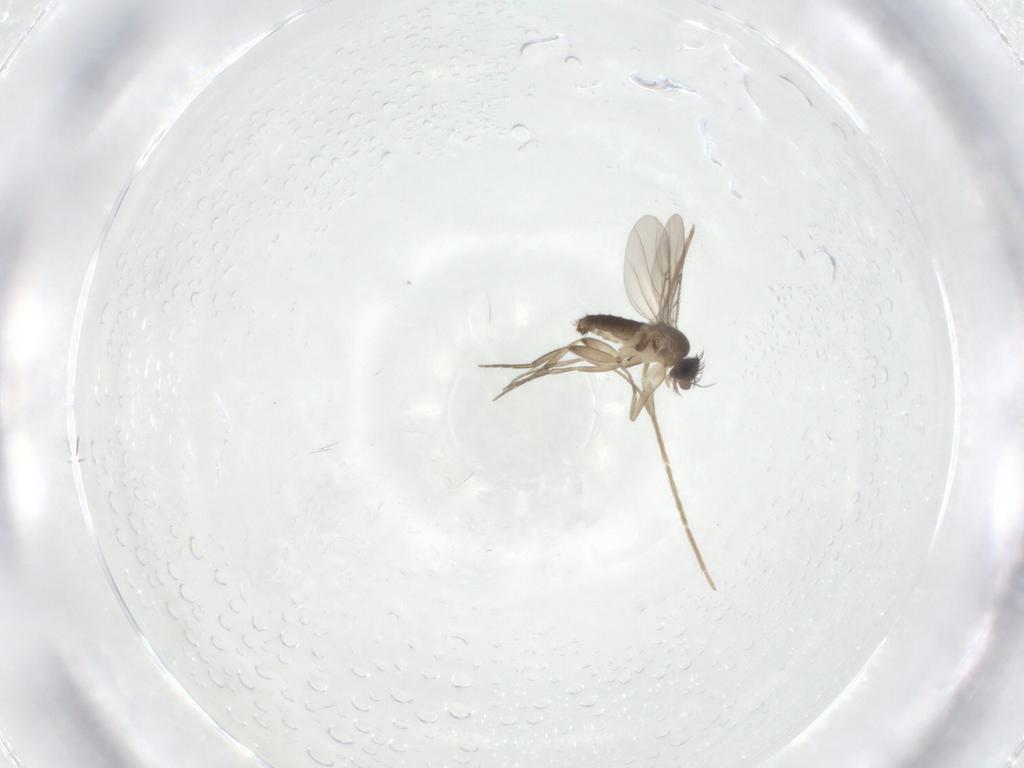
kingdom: Animalia
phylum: Arthropoda
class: Insecta
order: Diptera
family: Phoridae
